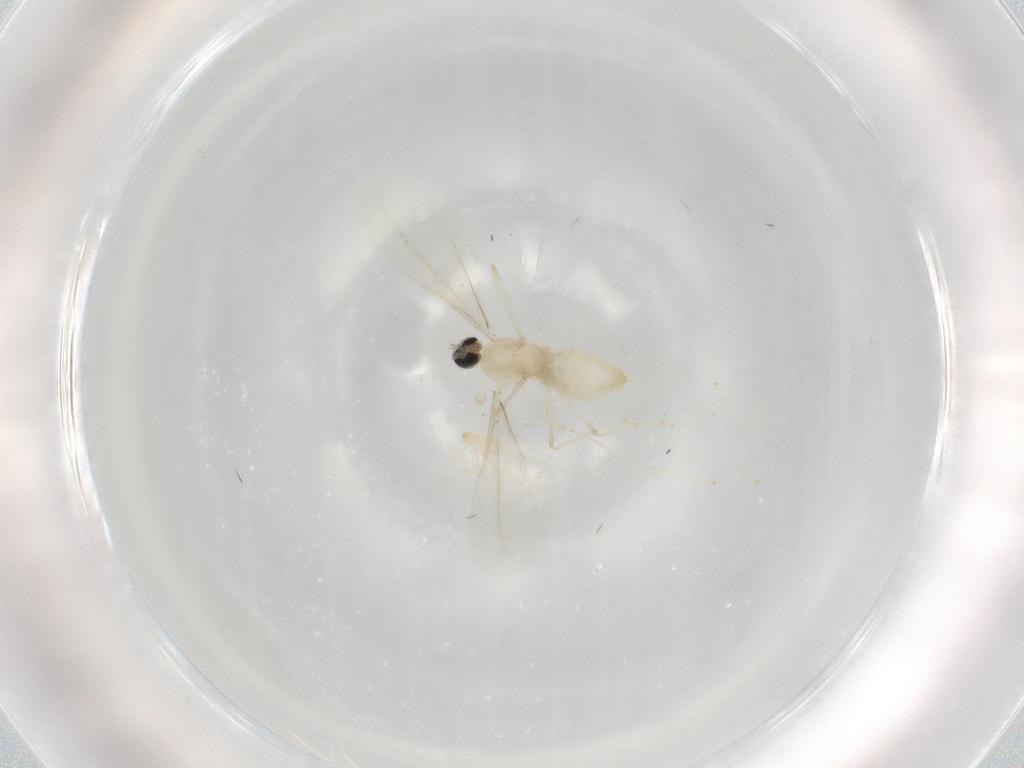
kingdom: Animalia
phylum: Arthropoda
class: Insecta
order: Diptera
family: Cecidomyiidae
